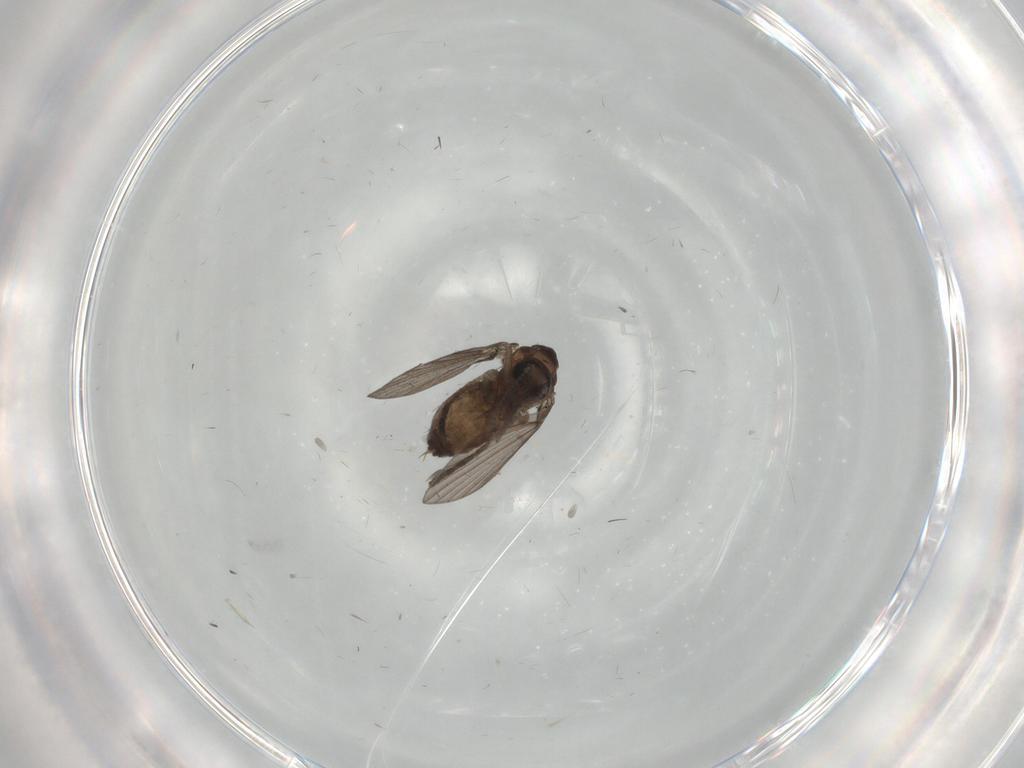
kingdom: Animalia
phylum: Arthropoda
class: Insecta
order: Diptera
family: Psychodidae
